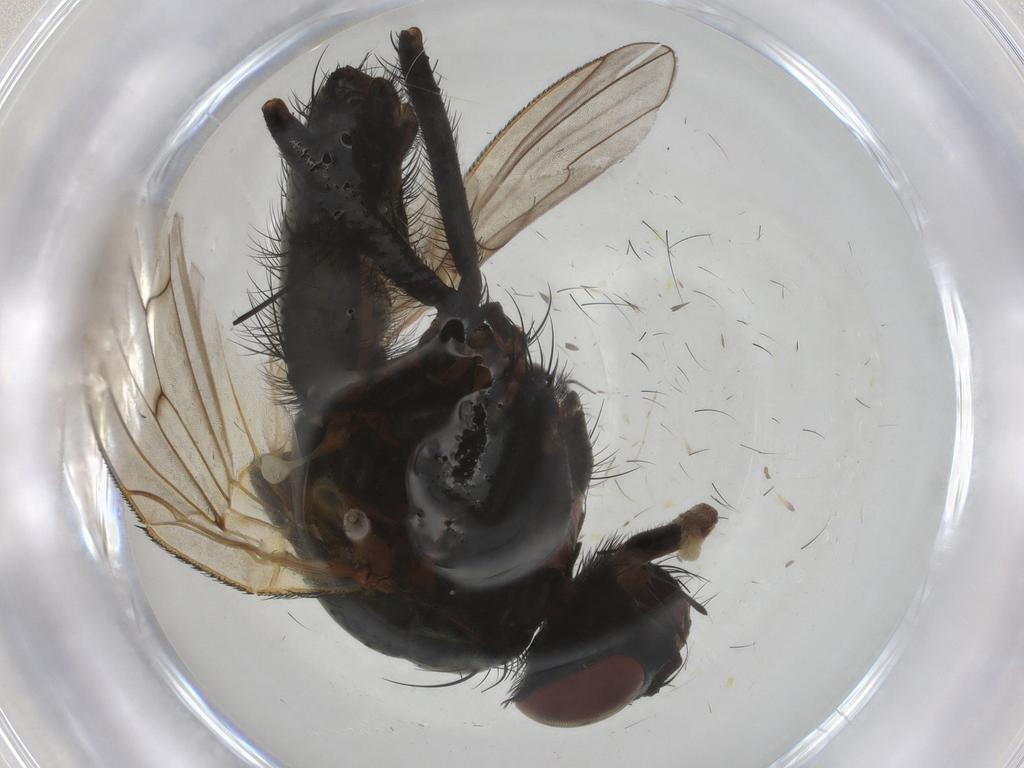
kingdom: Animalia
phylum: Arthropoda
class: Insecta
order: Diptera
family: Anthomyiidae
